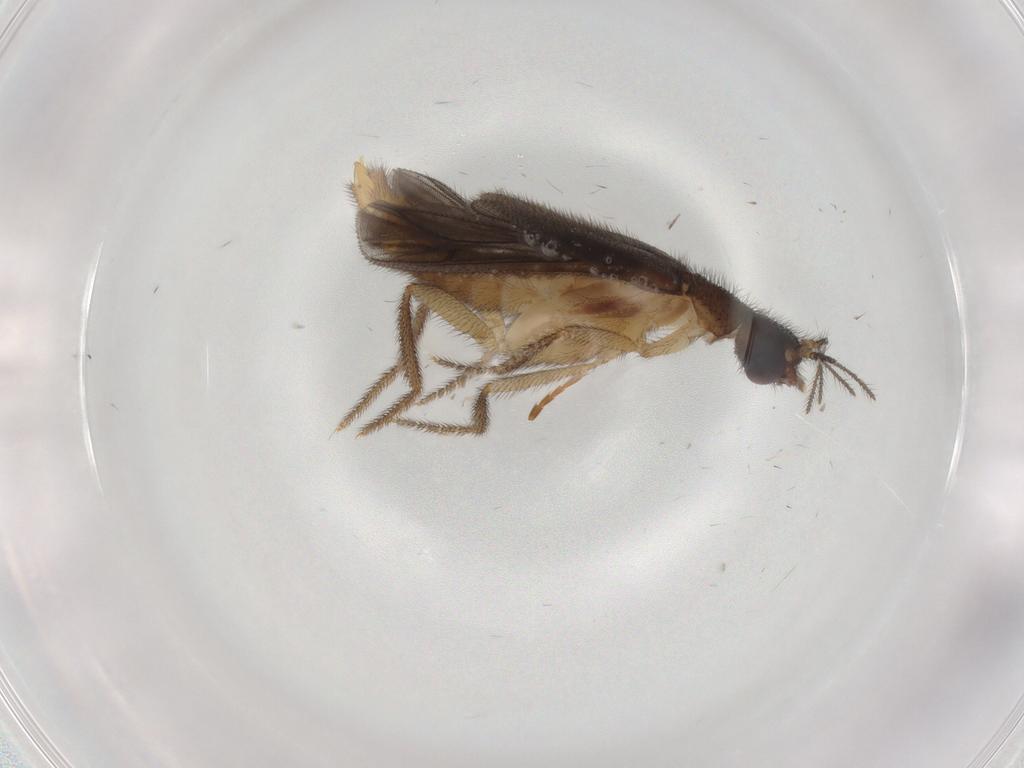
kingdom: Animalia
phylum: Arthropoda
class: Insecta
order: Coleoptera
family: Phengodidae
